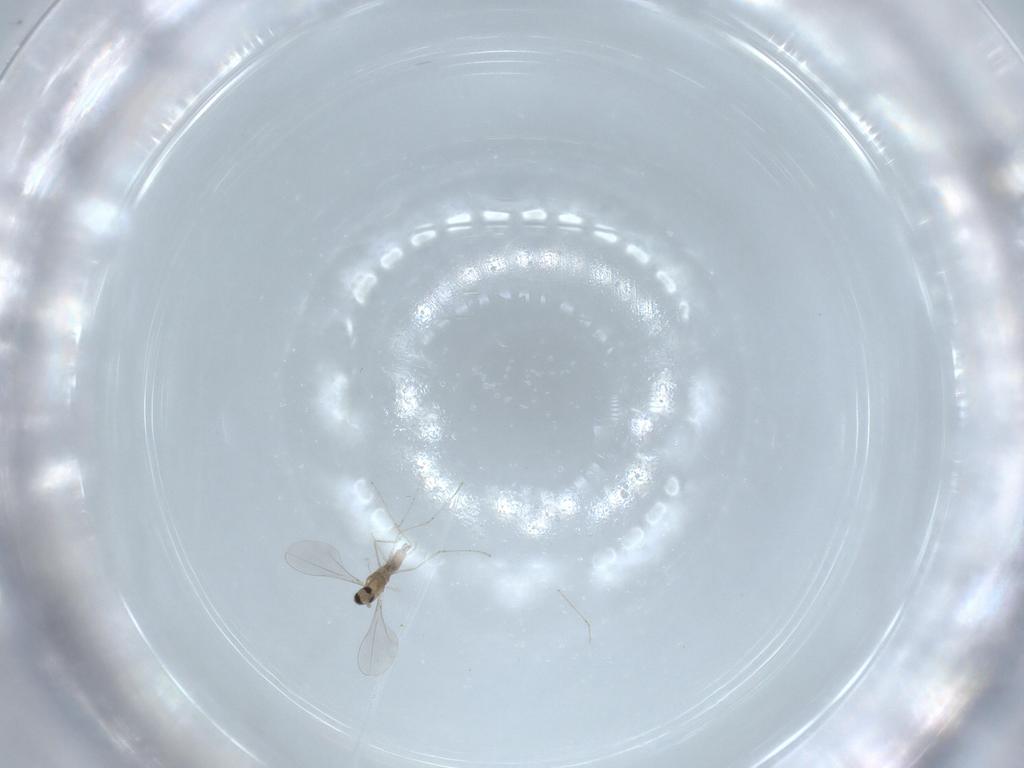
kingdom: Animalia
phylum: Arthropoda
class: Insecta
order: Diptera
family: Cecidomyiidae
